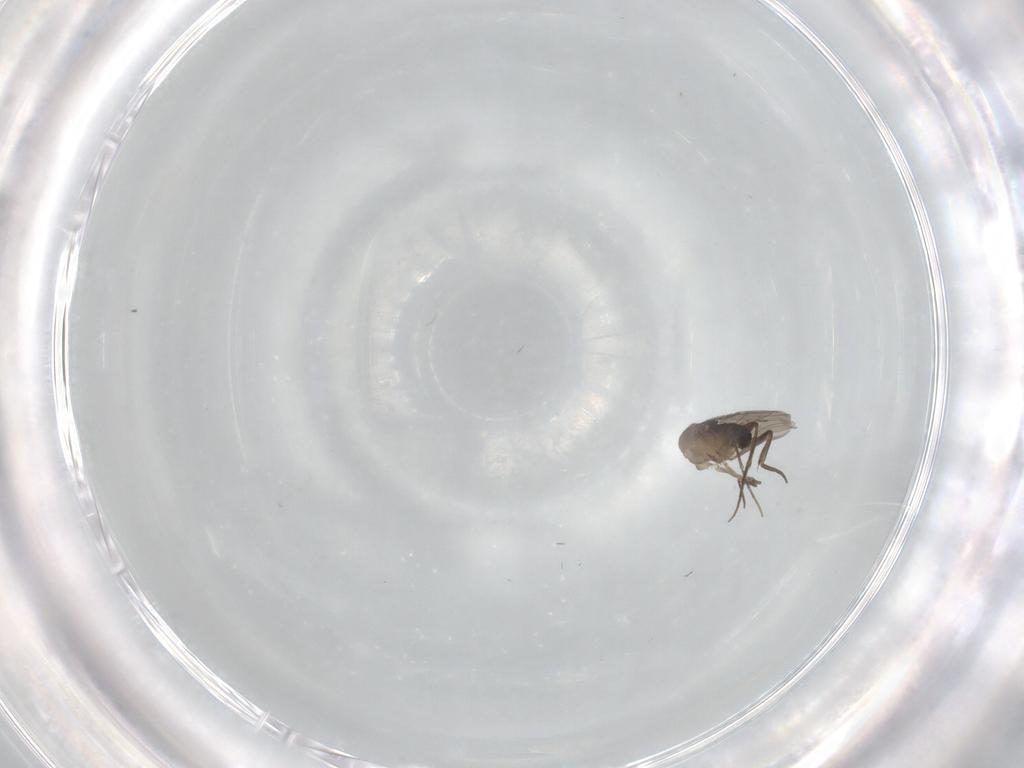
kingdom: Animalia
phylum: Arthropoda
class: Insecta
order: Diptera
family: Phoridae
